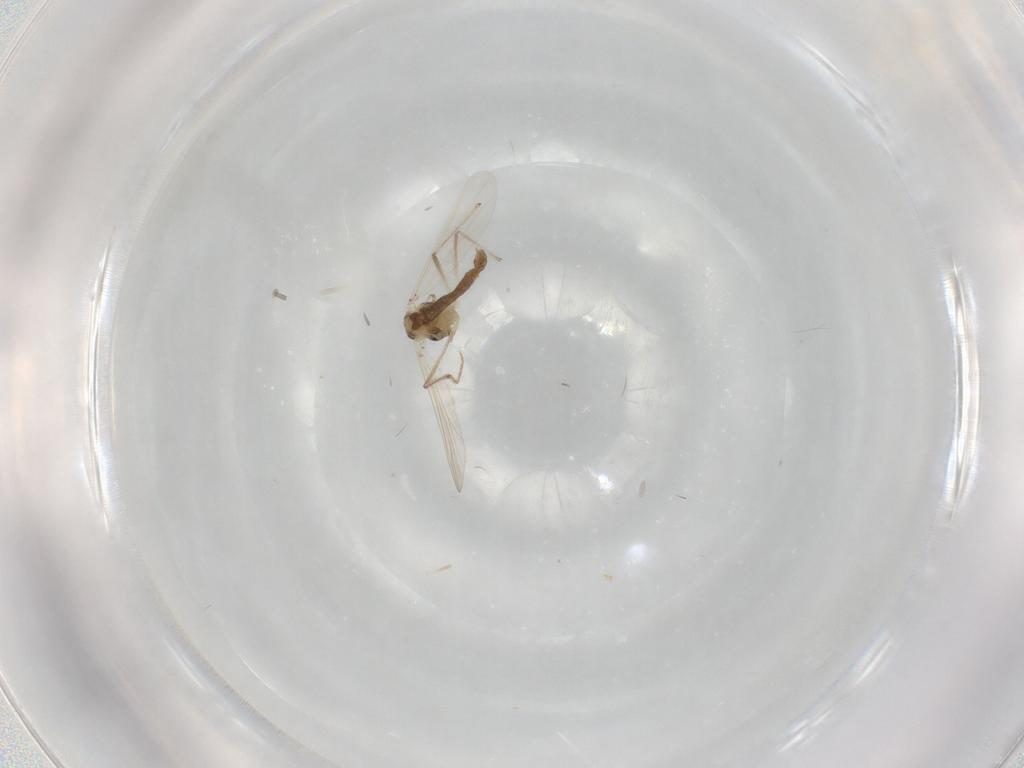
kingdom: Animalia
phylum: Arthropoda
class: Insecta
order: Diptera
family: Chironomidae
